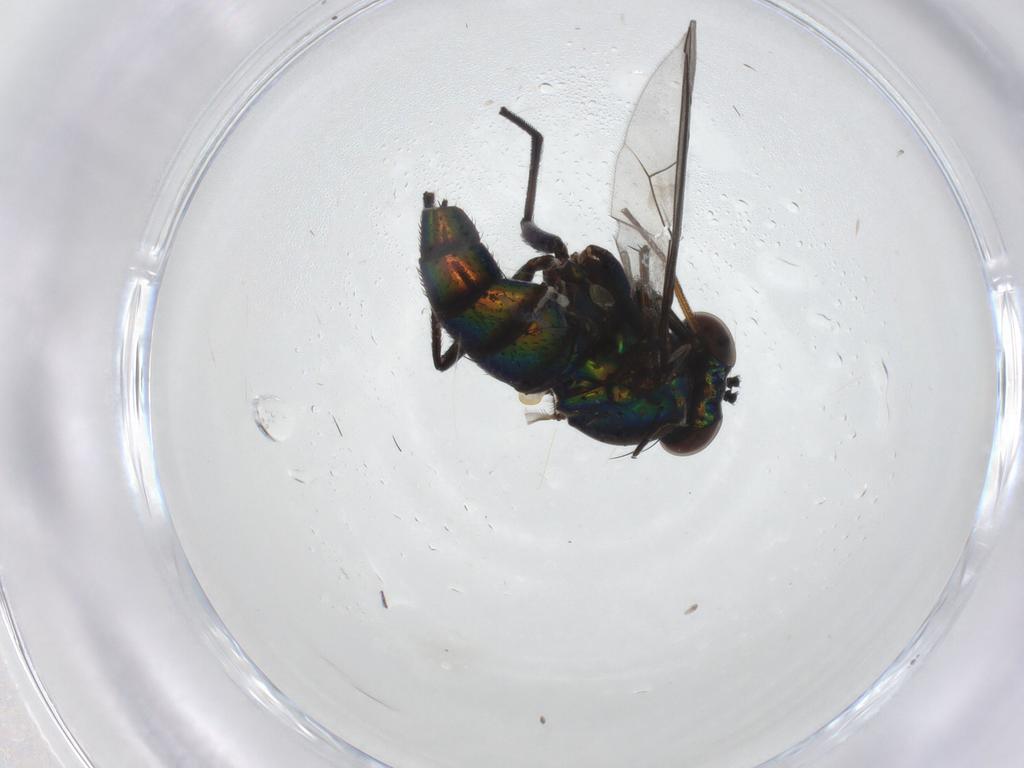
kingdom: Animalia
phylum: Arthropoda
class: Insecta
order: Diptera
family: Dolichopodidae
